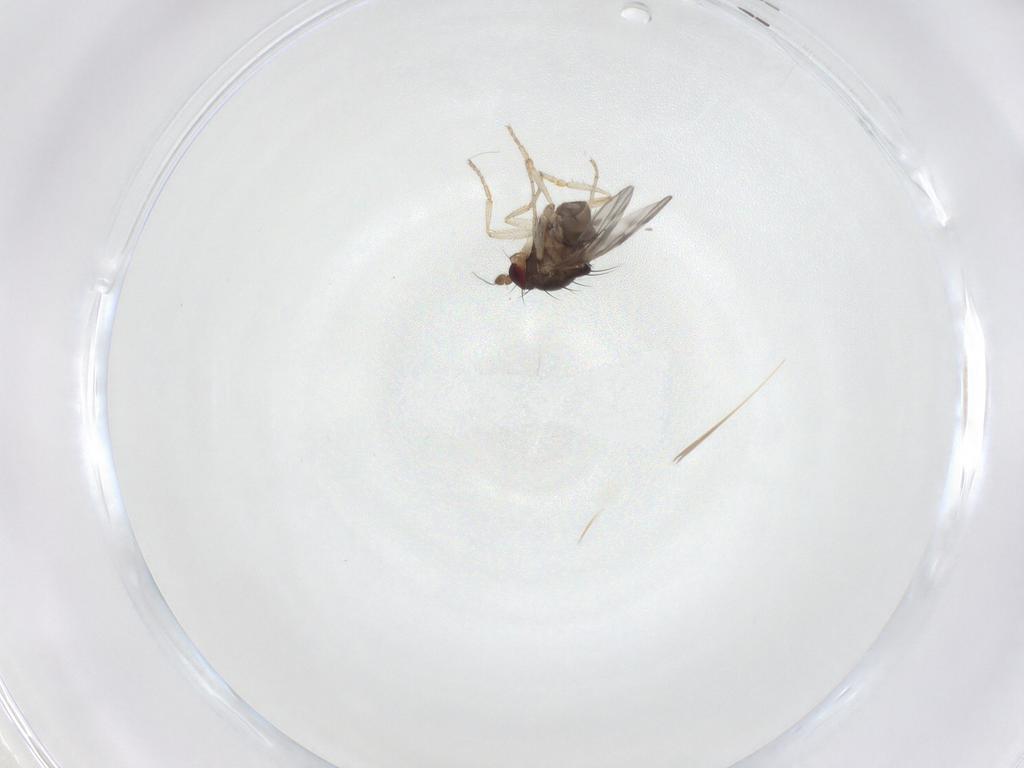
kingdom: Animalia
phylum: Arthropoda
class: Insecta
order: Diptera
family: Sciaridae
